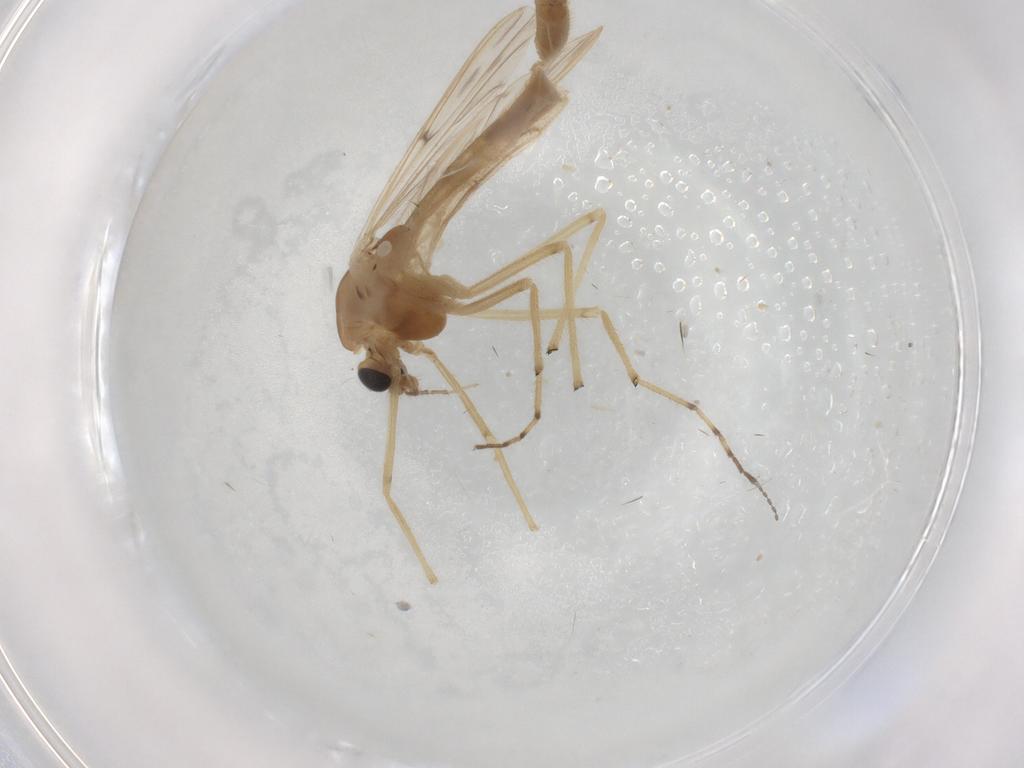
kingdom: Animalia
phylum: Arthropoda
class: Insecta
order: Diptera
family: Chironomidae
